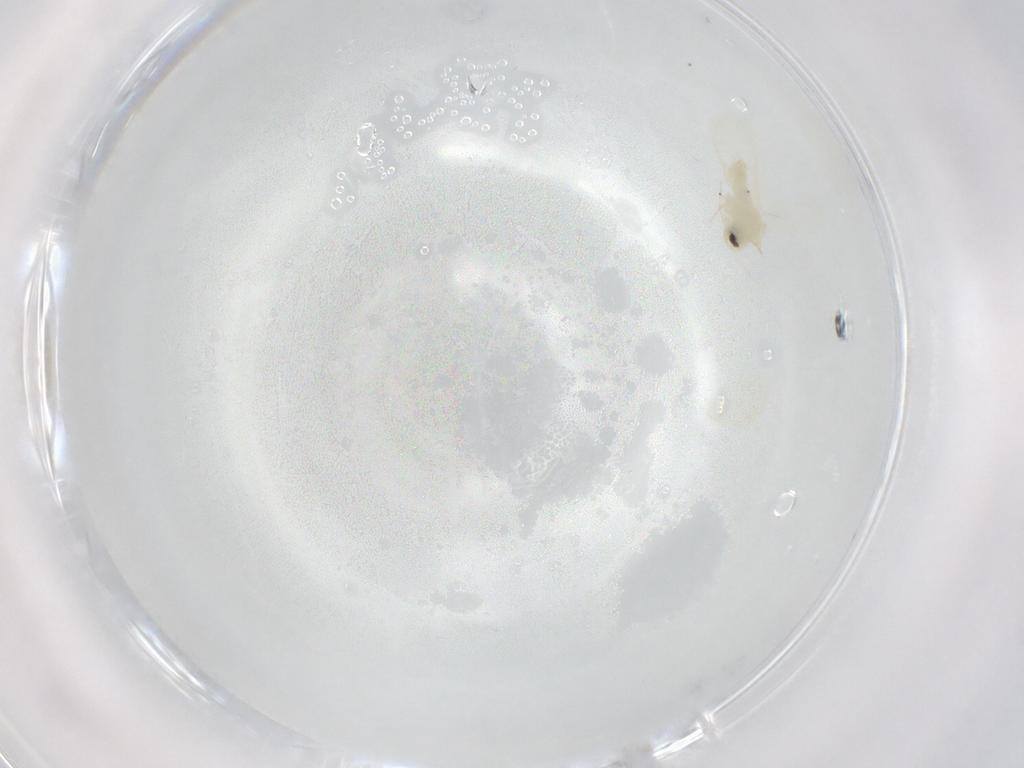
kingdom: Animalia
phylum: Arthropoda
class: Insecta
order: Hemiptera
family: Aleyrodidae
